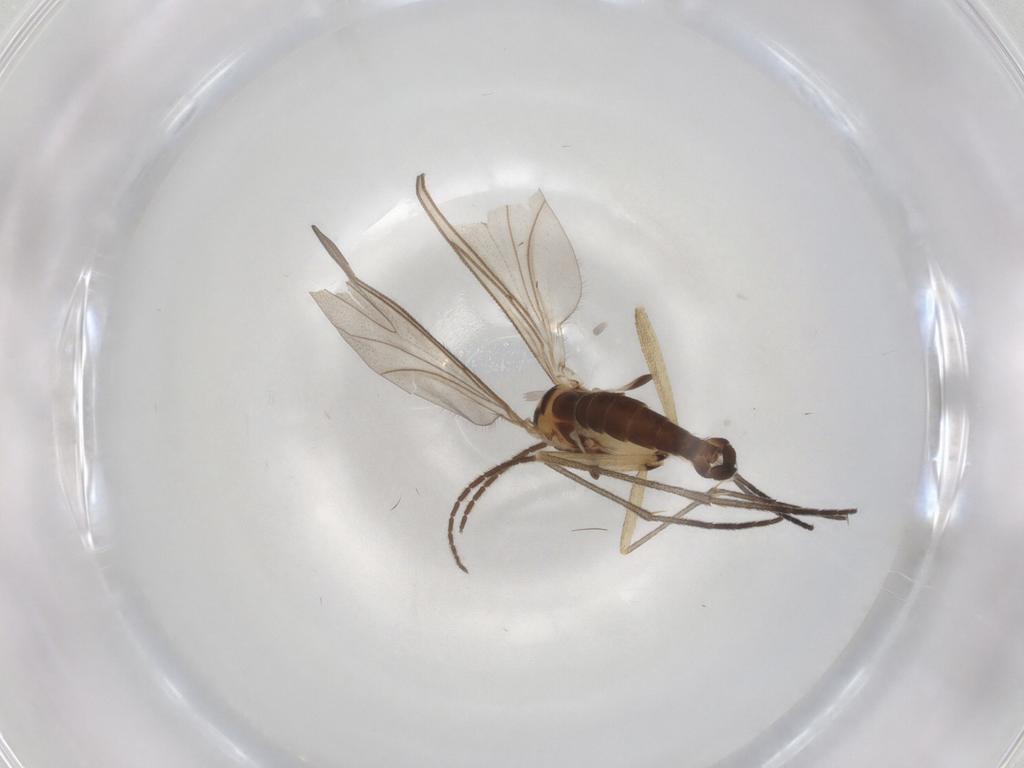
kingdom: Animalia
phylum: Arthropoda
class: Insecta
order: Diptera
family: Sciaridae
